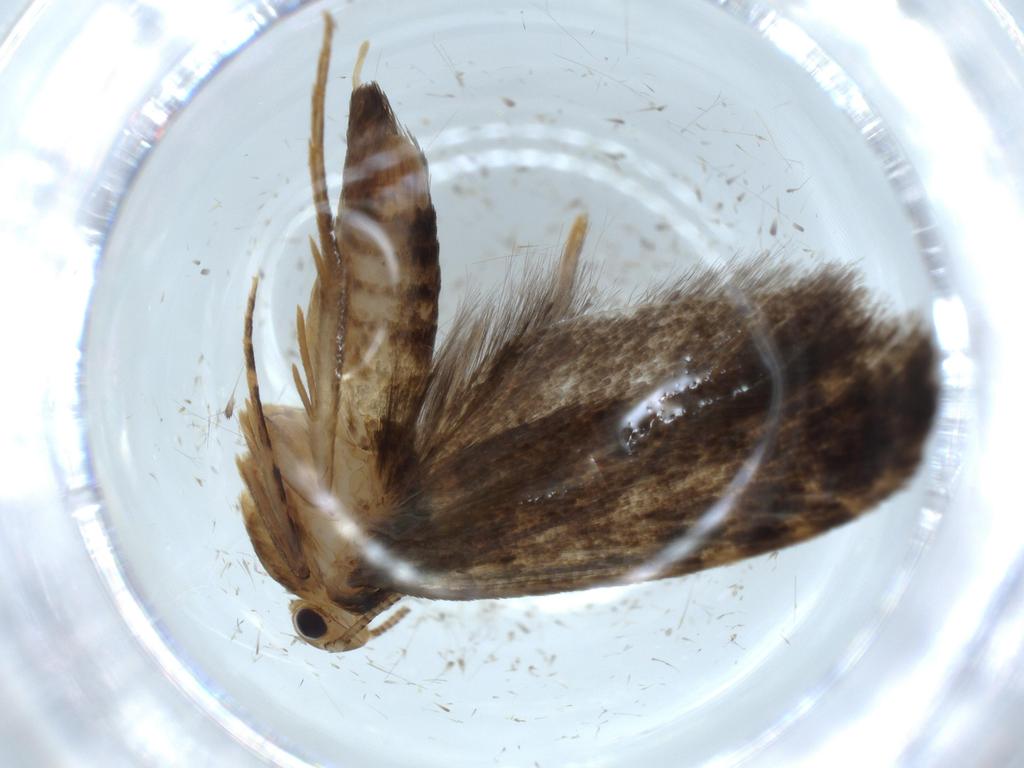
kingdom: Animalia
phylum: Arthropoda
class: Insecta
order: Lepidoptera
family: Tineidae
